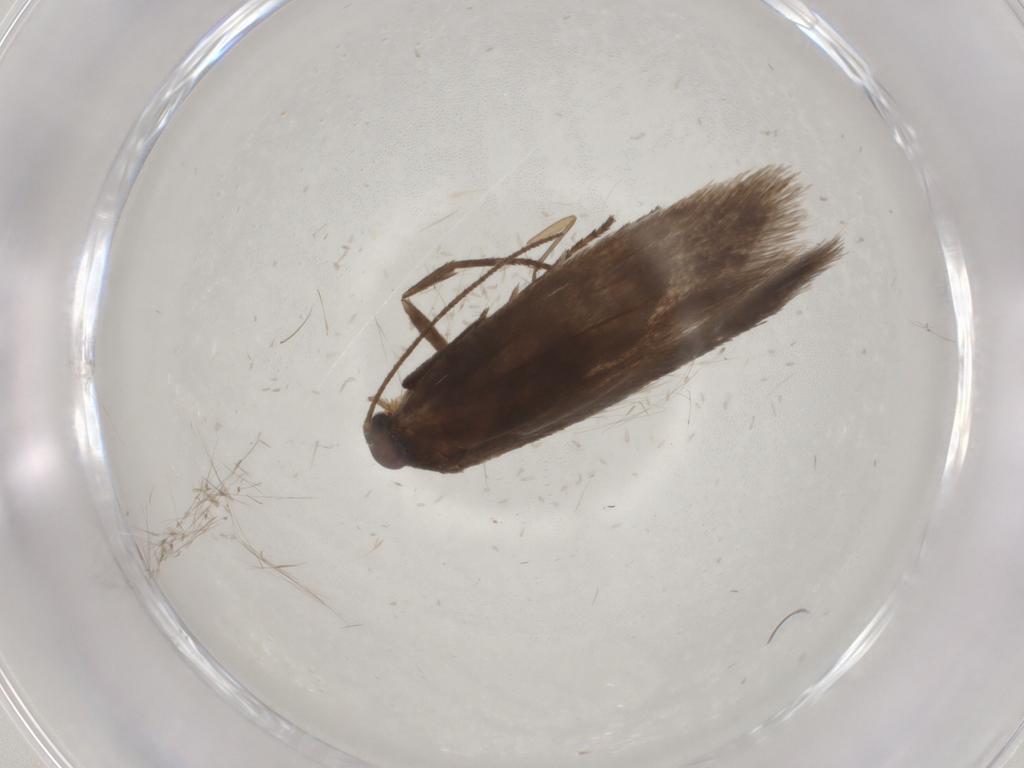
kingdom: Animalia
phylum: Arthropoda
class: Insecta
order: Lepidoptera
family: Limacodidae
